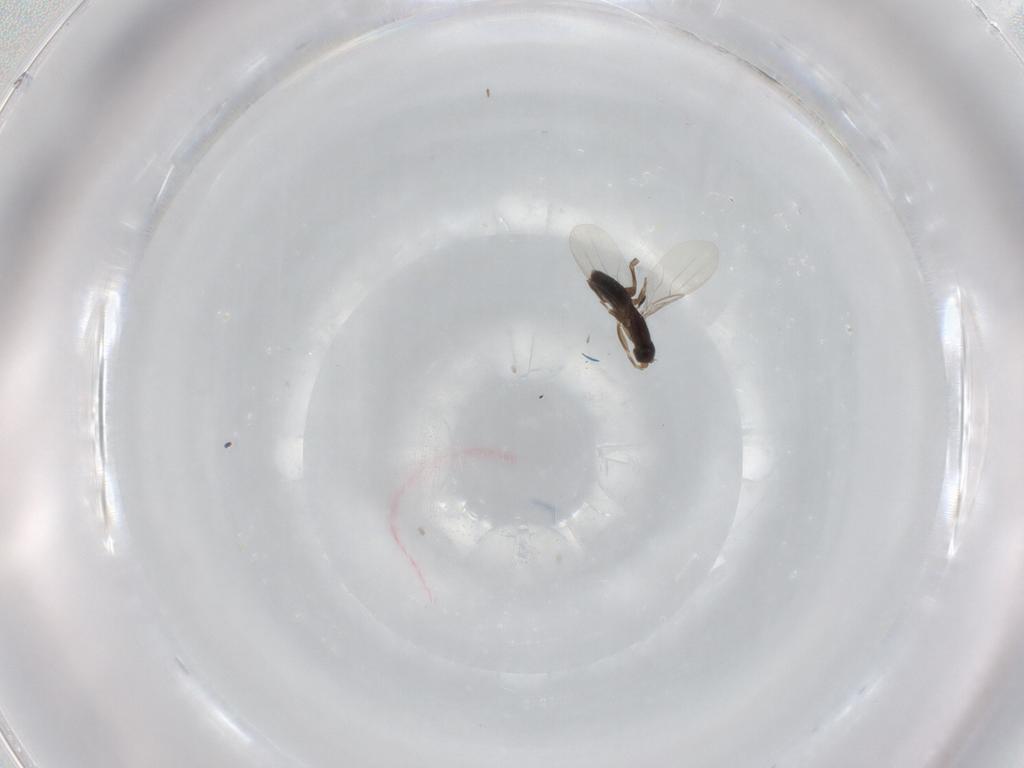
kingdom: Animalia
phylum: Arthropoda
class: Insecta
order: Diptera
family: Phoridae
